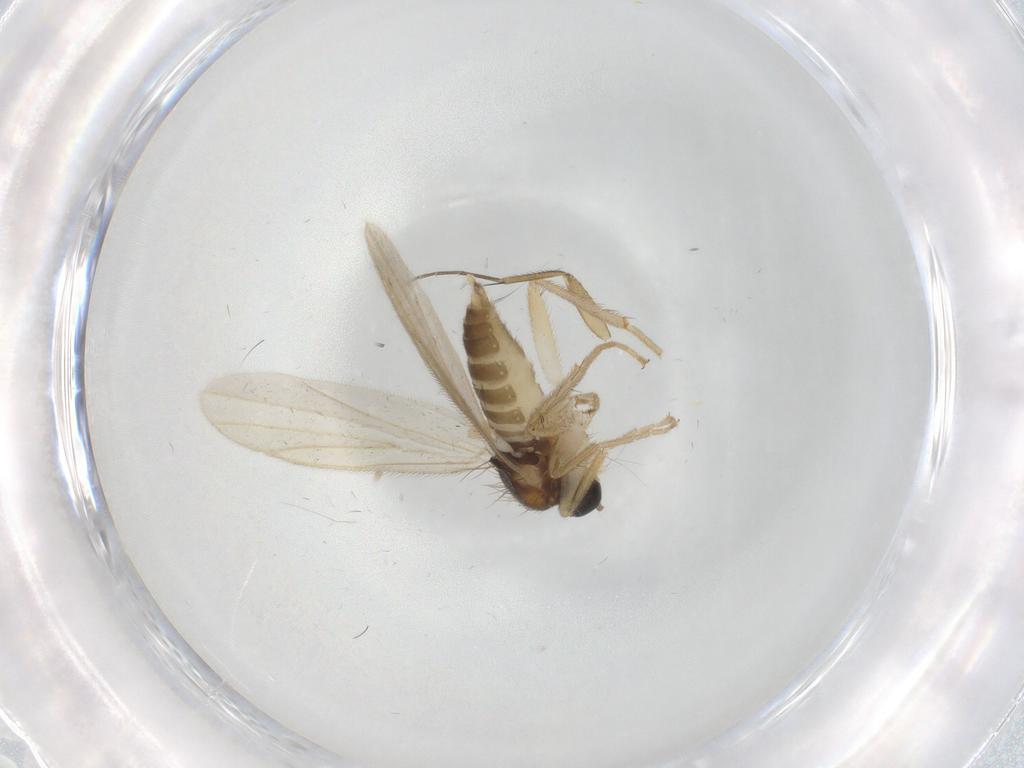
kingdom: Animalia
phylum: Arthropoda
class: Insecta
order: Diptera
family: Hybotidae
